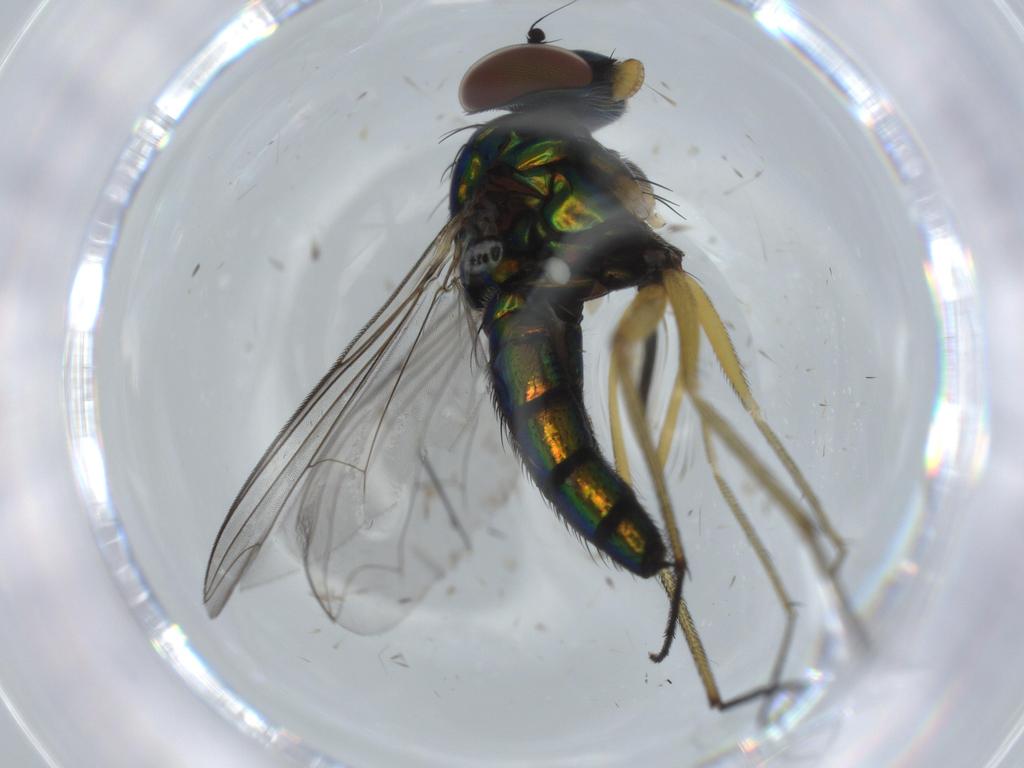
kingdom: Animalia
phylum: Arthropoda
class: Insecta
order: Diptera
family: Dolichopodidae
